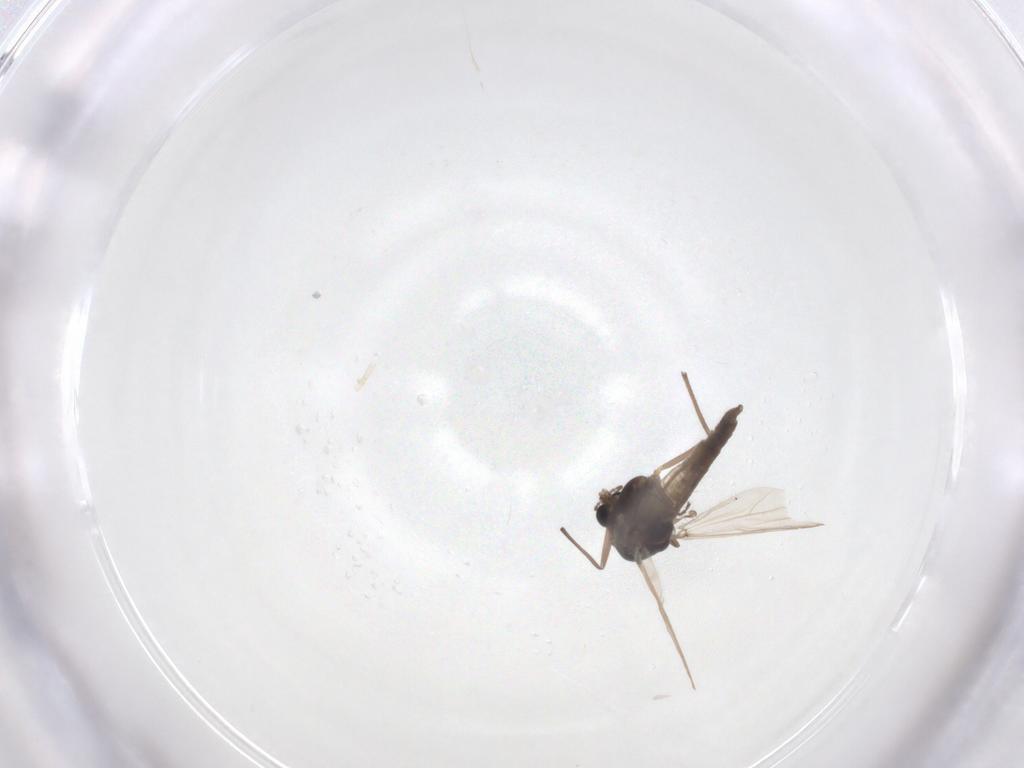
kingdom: Animalia
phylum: Arthropoda
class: Insecta
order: Diptera
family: Chironomidae
